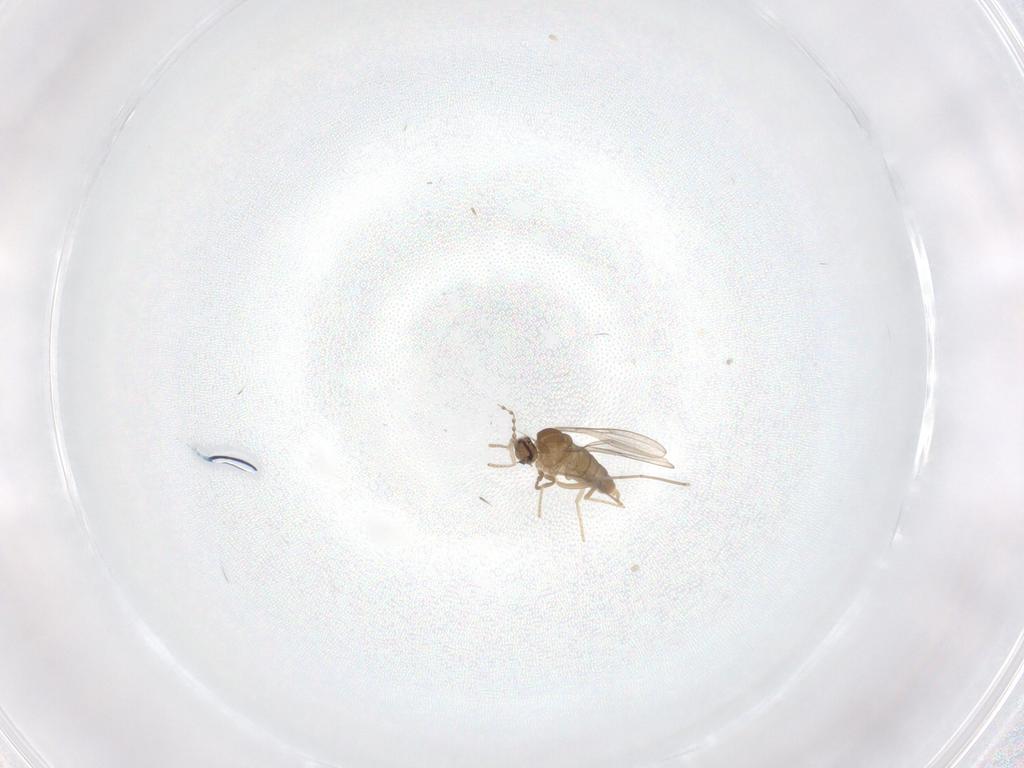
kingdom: Animalia
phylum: Arthropoda
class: Insecta
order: Diptera
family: Cecidomyiidae
